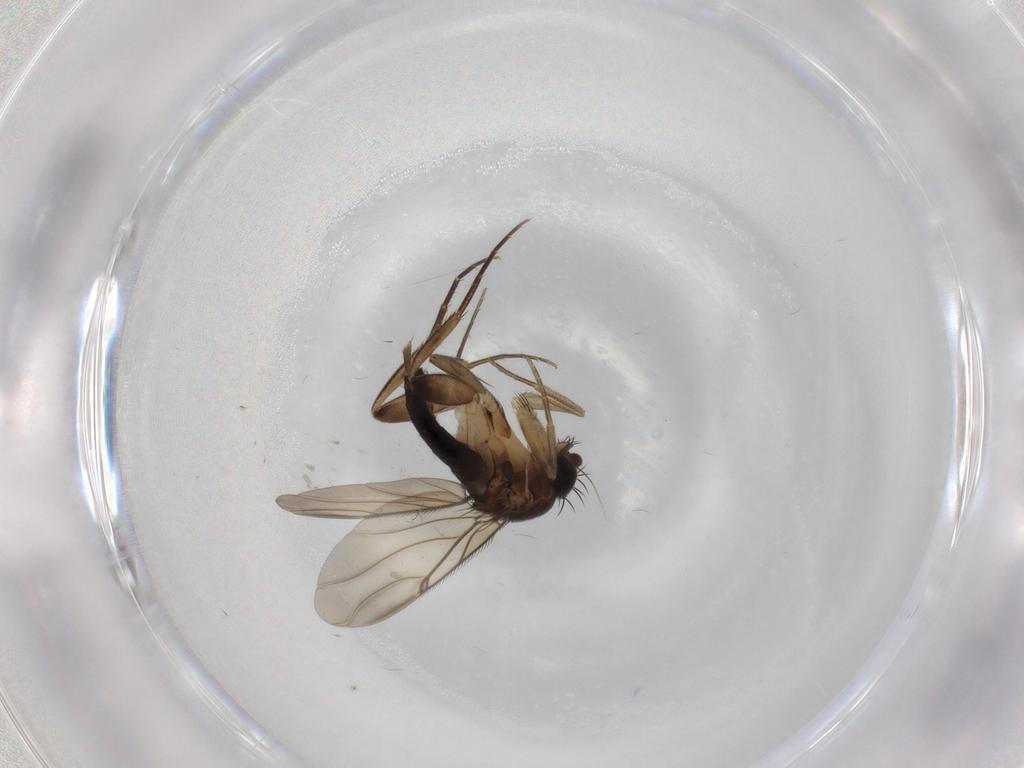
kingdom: Animalia
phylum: Arthropoda
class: Insecta
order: Diptera
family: Phoridae
